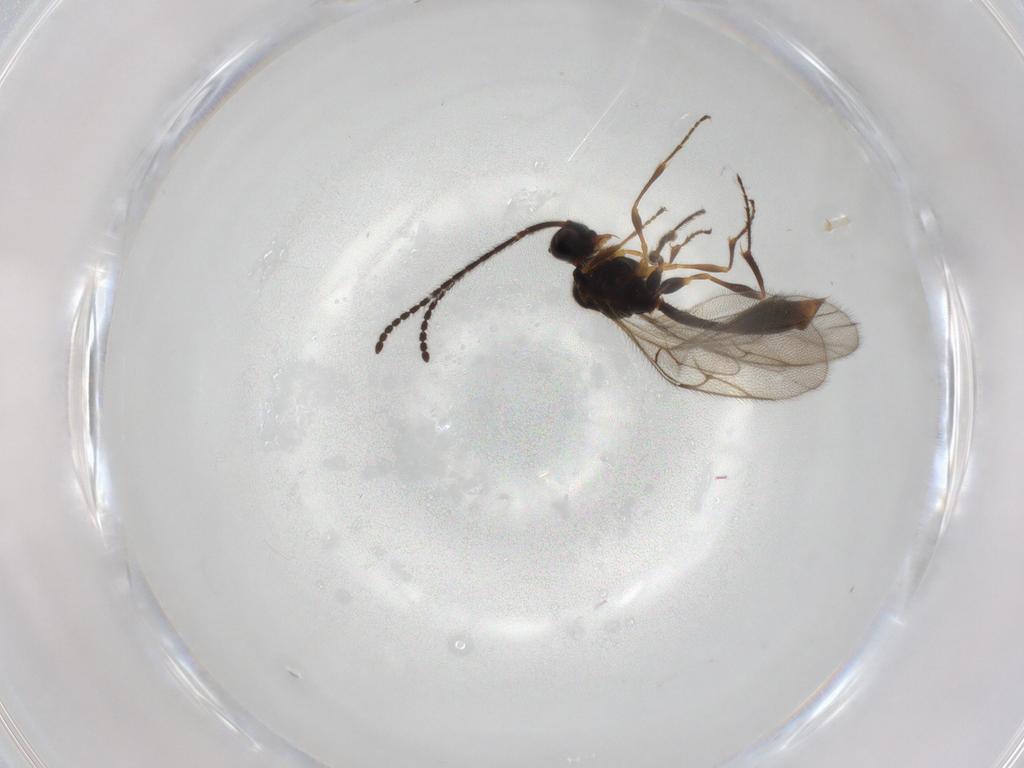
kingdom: Animalia
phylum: Arthropoda
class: Insecta
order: Hymenoptera
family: Diapriidae
